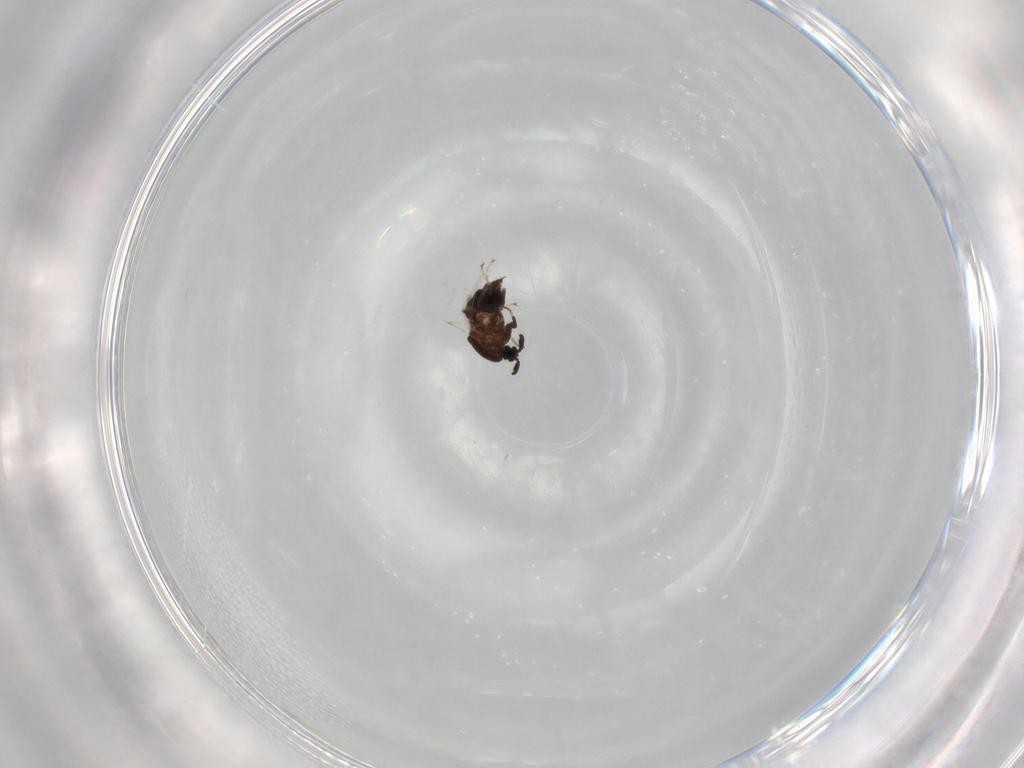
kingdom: Animalia
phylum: Arthropoda
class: Insecta
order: Diptera
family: Scatopsidae
